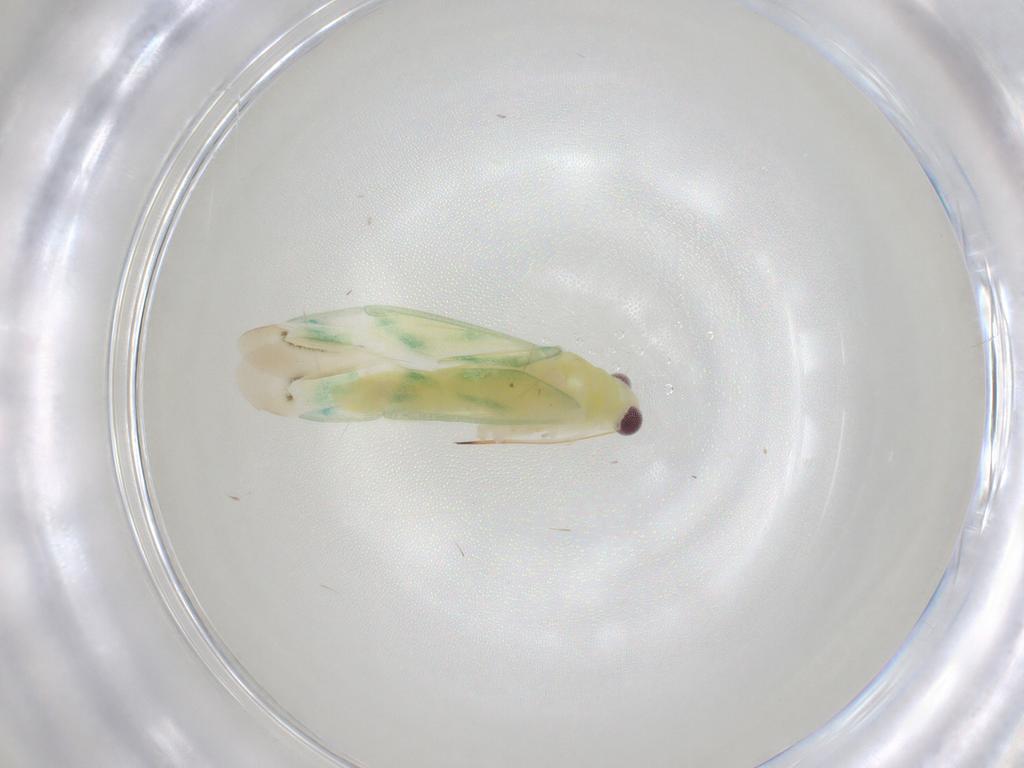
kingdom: Animalia
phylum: Arthropoda
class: Insecta
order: Hemiptera
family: Miridae
